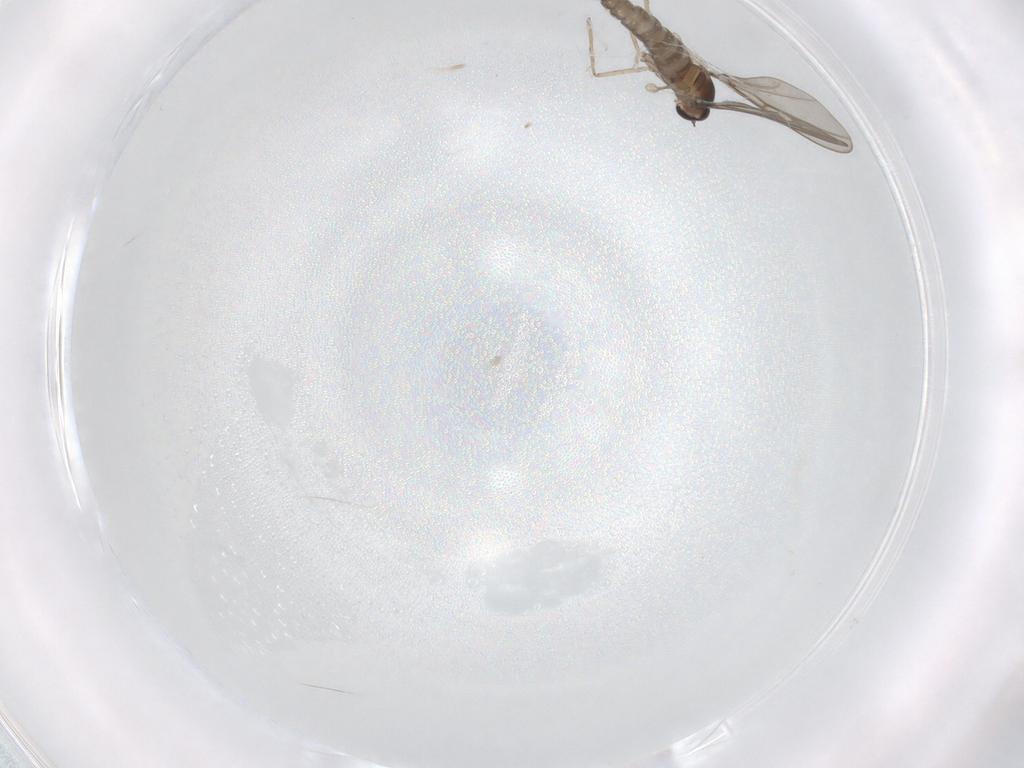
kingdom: Animalia
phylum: Arthropoda
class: Insecta
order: Diptera
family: Cecidomyiidae
